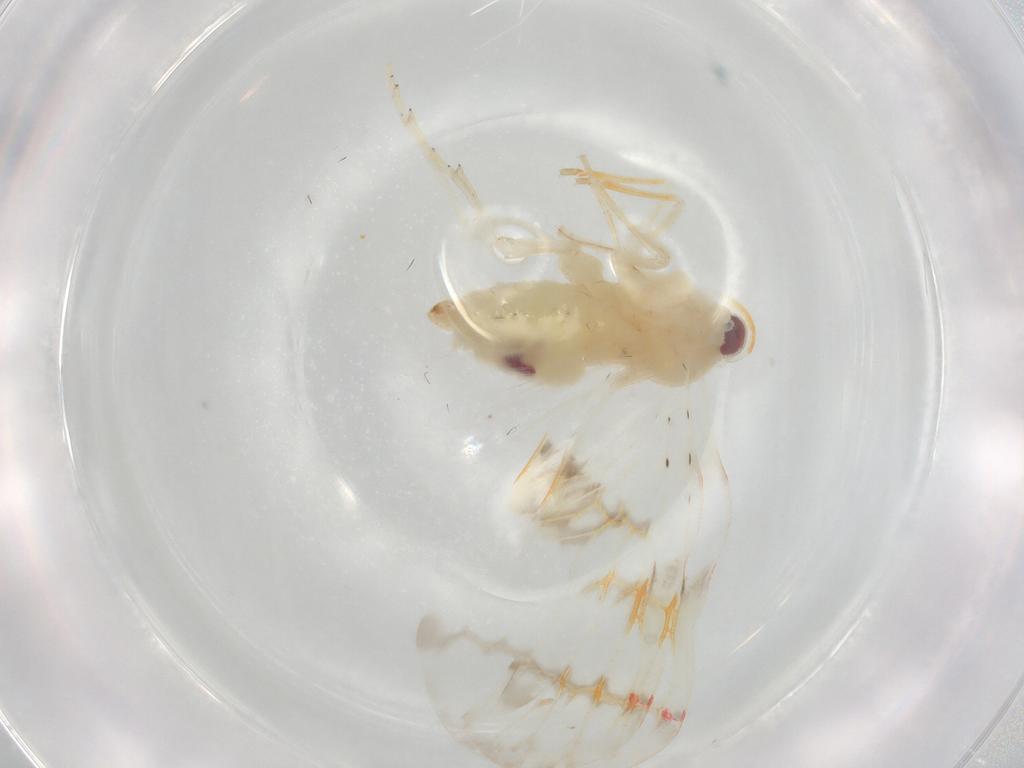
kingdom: Animalia
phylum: Arthropoda
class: Insecta
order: Hemiptera
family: Derbidae
